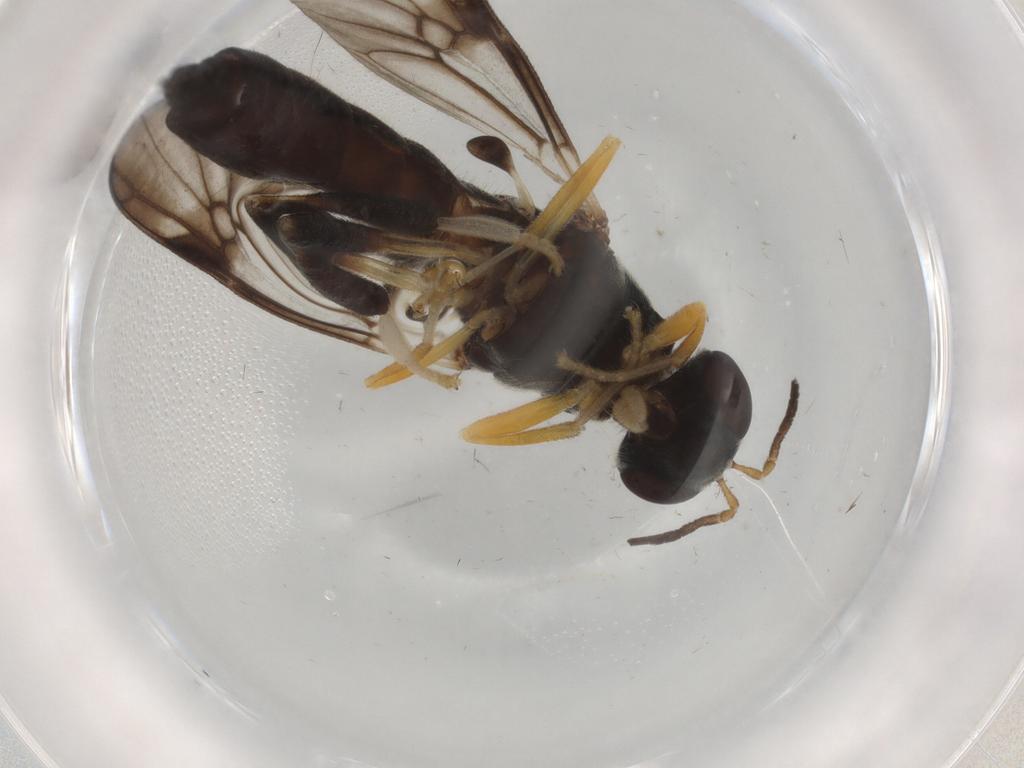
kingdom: Animalia
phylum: Arthropoda
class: Insecta
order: Diptera
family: Stratiomyidae
